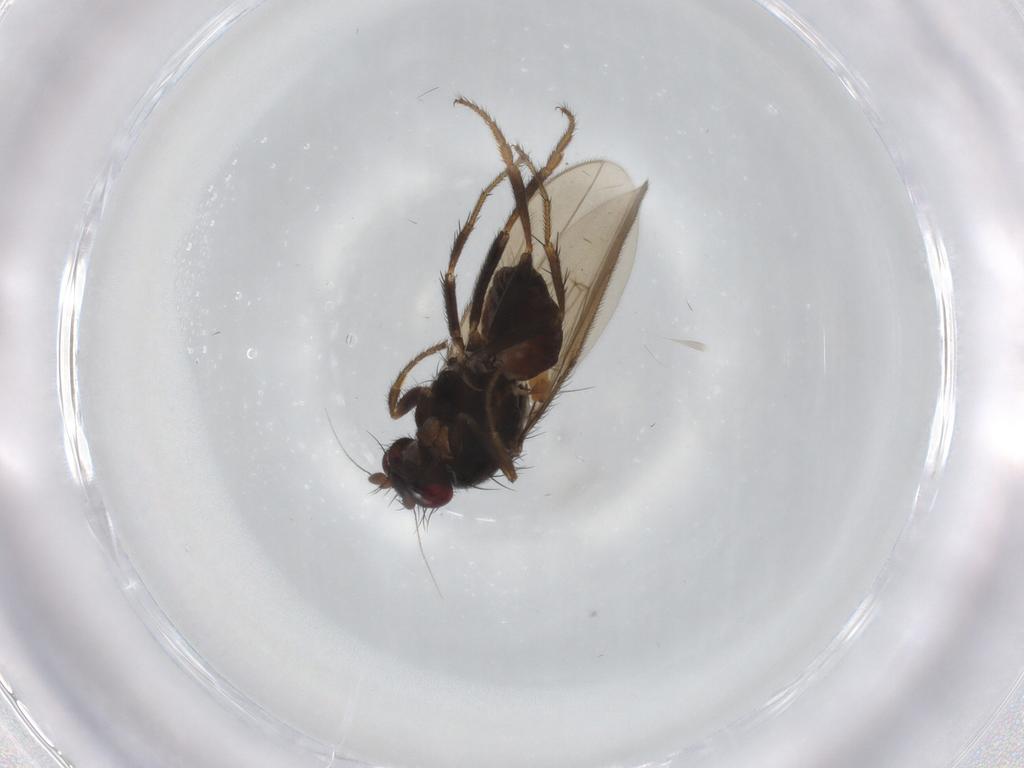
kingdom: Animalia
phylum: Arthropoda
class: Insecta
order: Diptera
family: Sphaeroceridae
